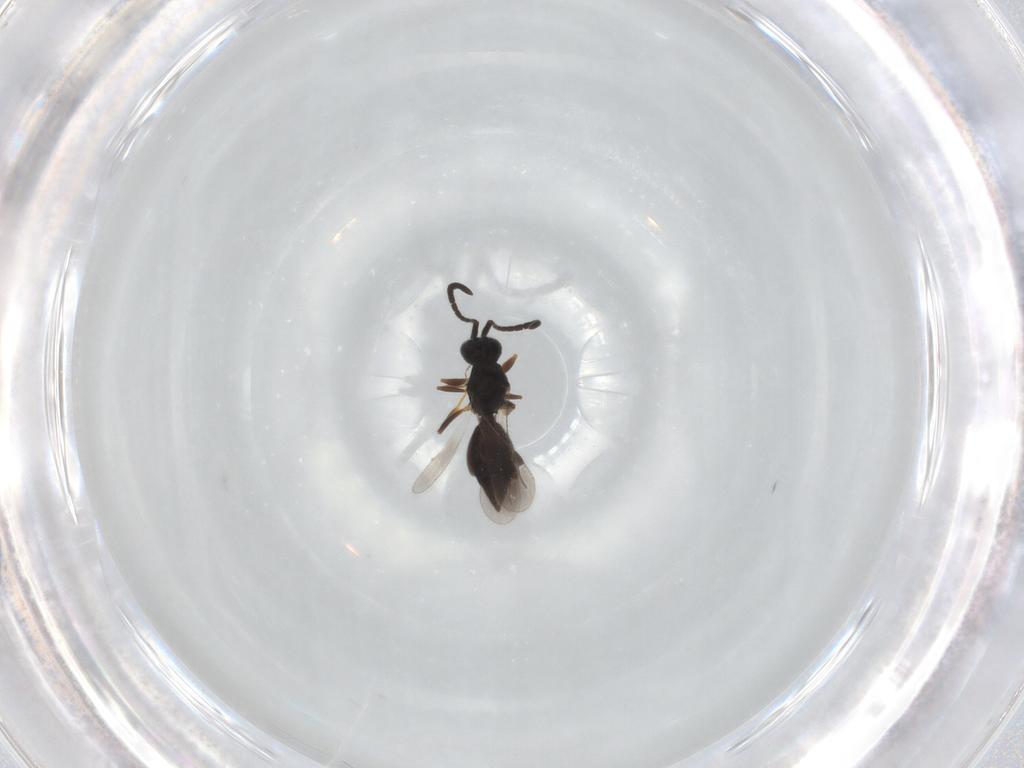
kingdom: Animalia
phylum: Arthropoda
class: Insecta
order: Hymenoptera
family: Megaspilidae
